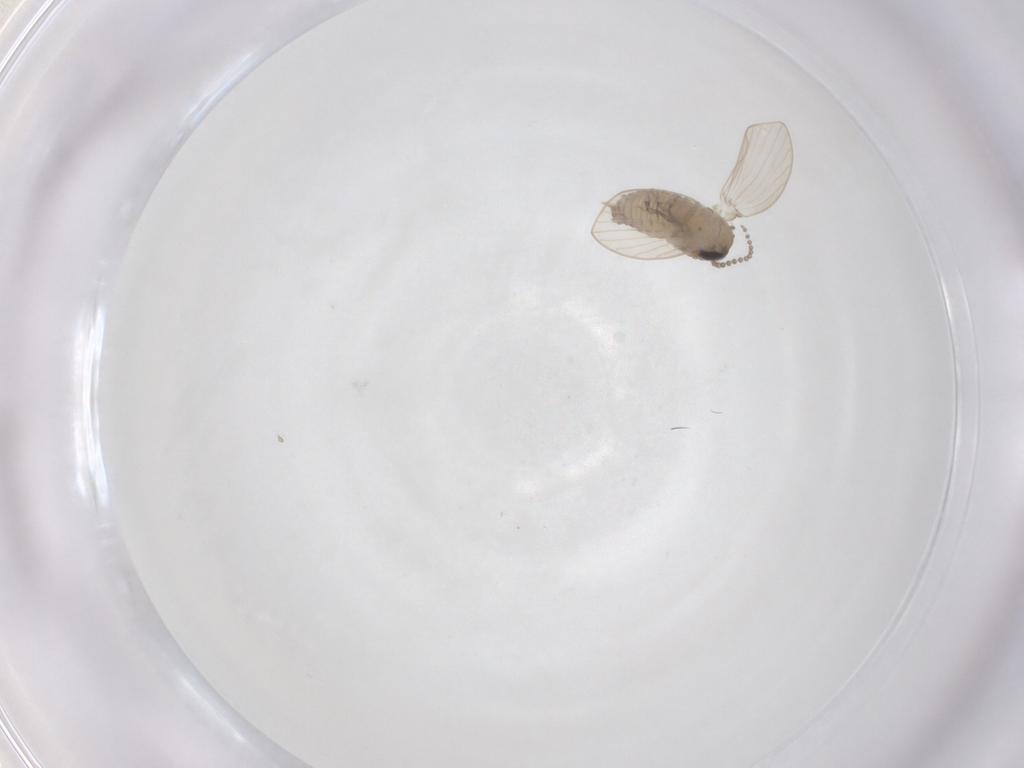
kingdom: Animalia
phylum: Arthropoda
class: Insecta
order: Diptera
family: Psychodidae
